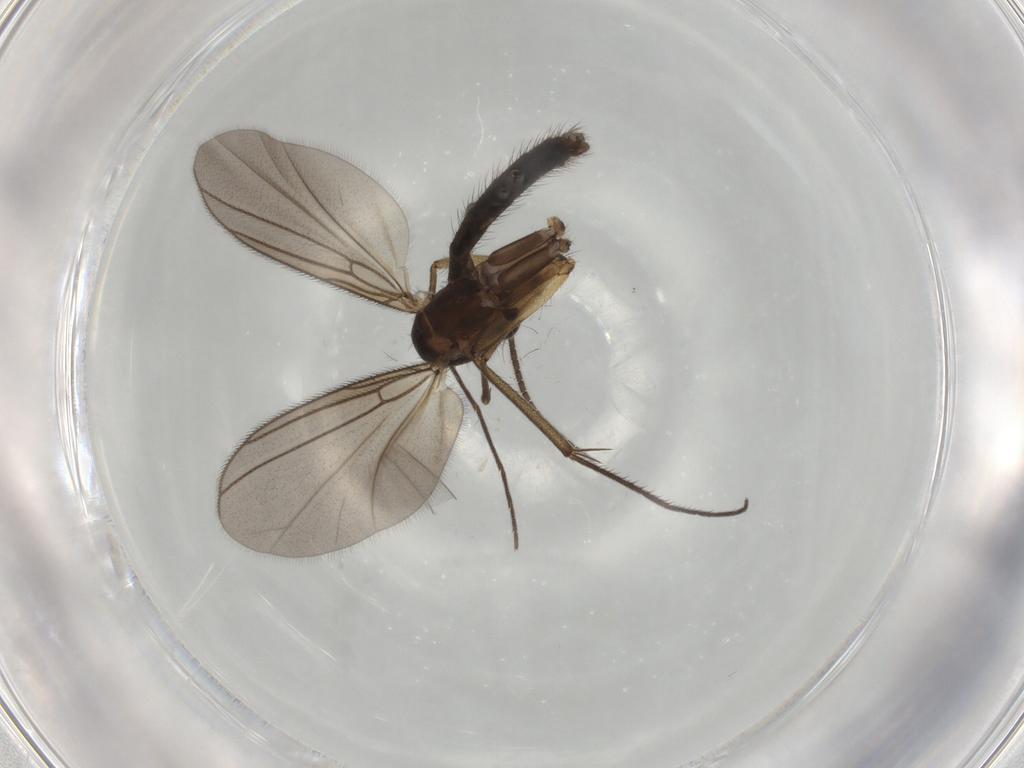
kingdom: Animalia
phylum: Arthropoda
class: Insecta
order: Diptera
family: Mycetophilidae
